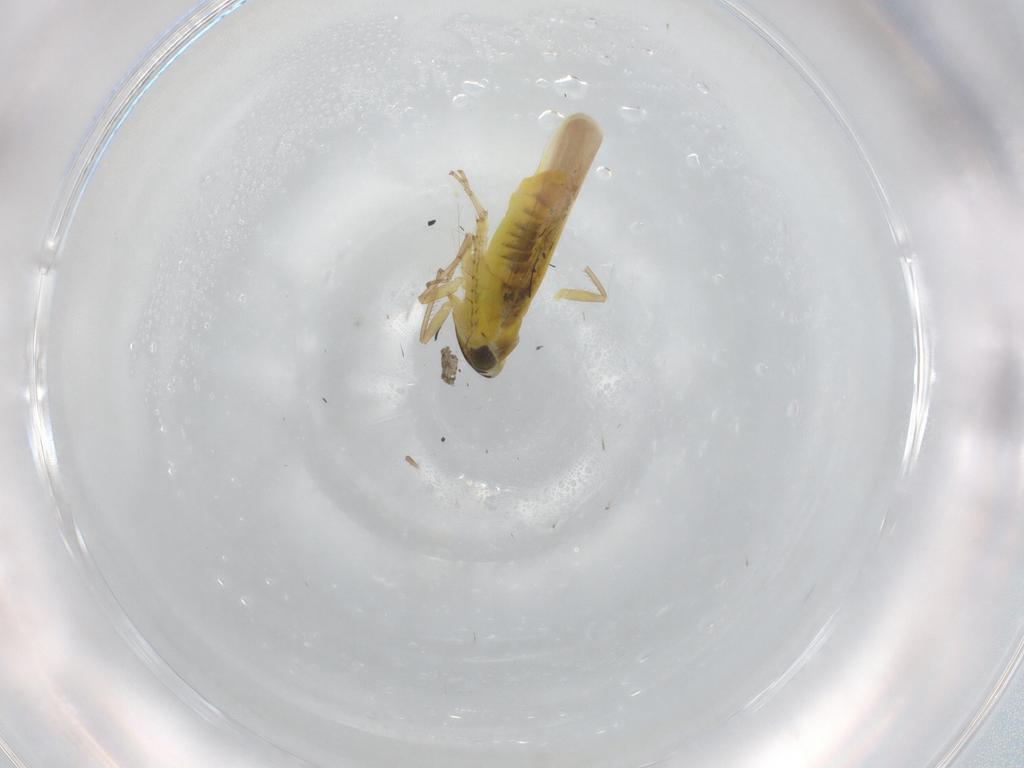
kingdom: Animalia
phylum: Arthropoda
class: Insecta
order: Hemiptera
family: Cicadellidae
